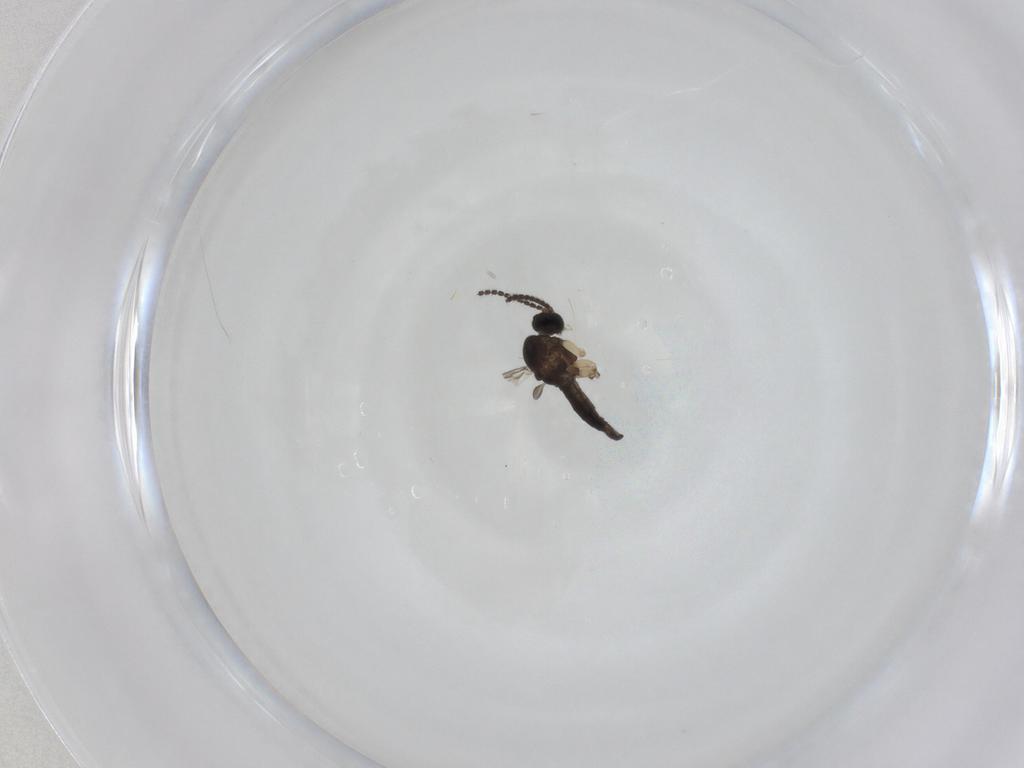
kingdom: Animalia
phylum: Arthropoda
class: Insecta
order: Diptera
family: Sciaridae
